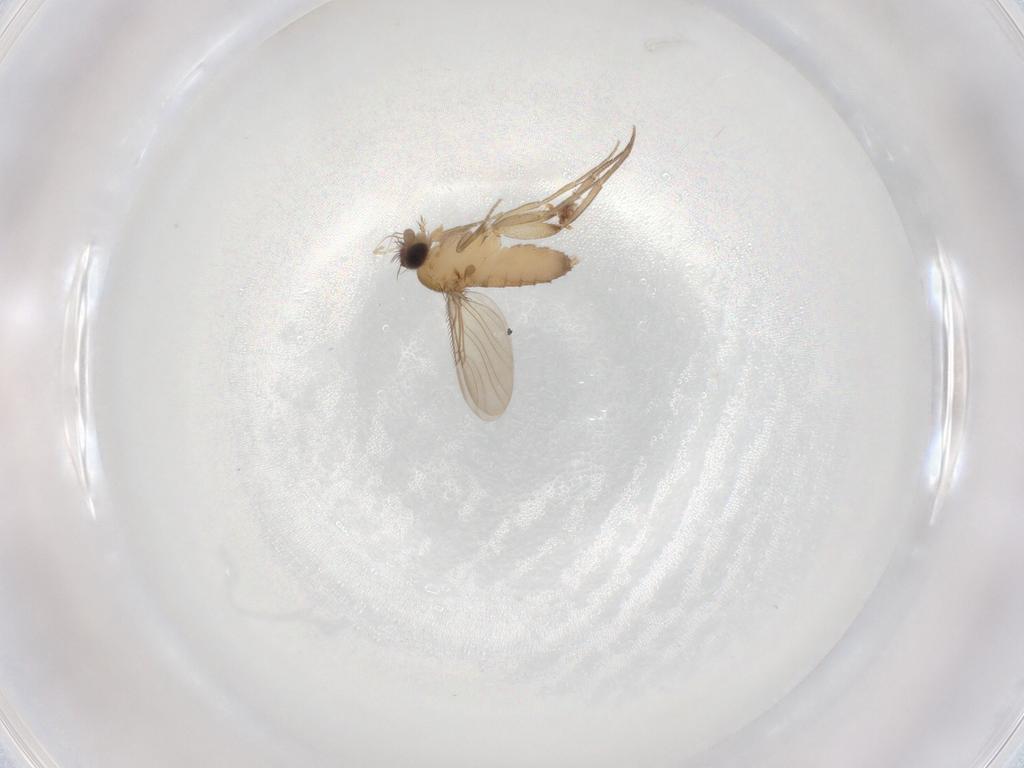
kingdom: Animalia
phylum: Arthropoda
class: Insecta
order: Diptera
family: Phoridae
